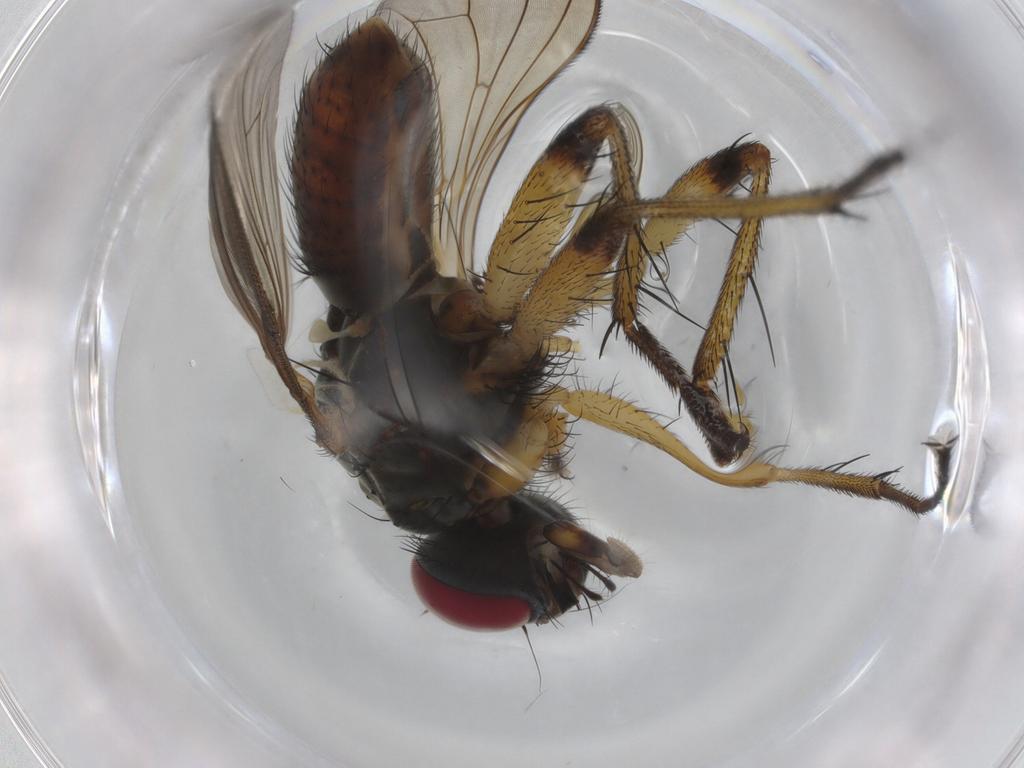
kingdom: Animalia
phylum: Arthropoda
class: Insecta
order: Diptera
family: Muscidae
